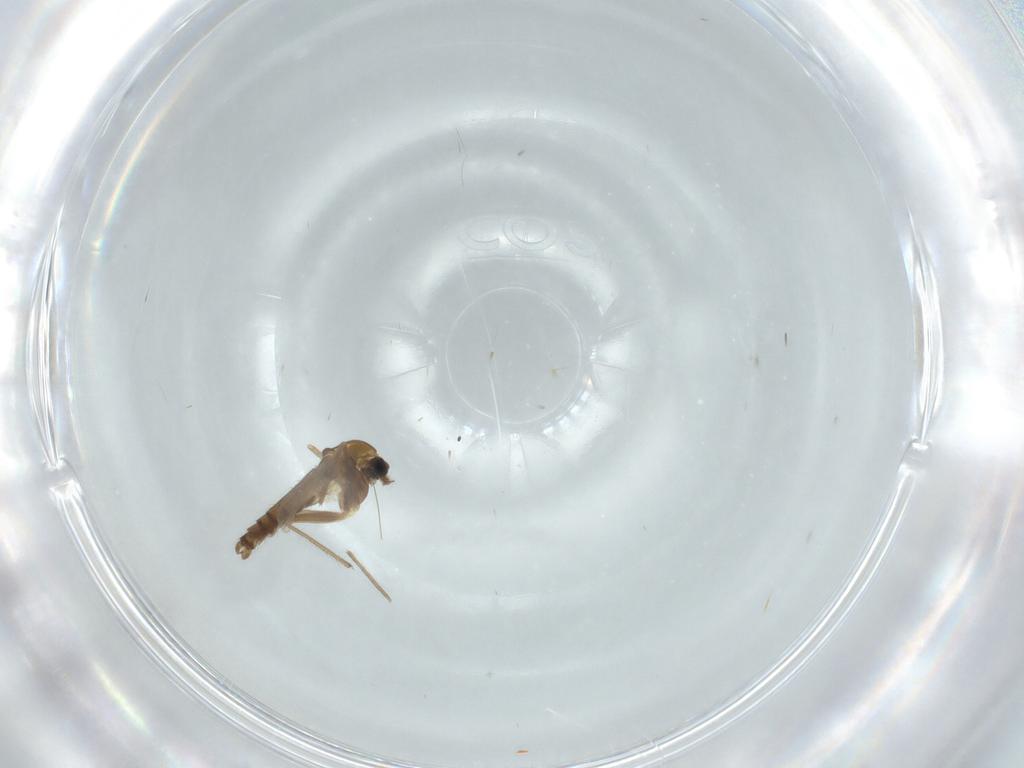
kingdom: Animalia
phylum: Arthropoda
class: Insecta
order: Diptera
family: Chironomidae
